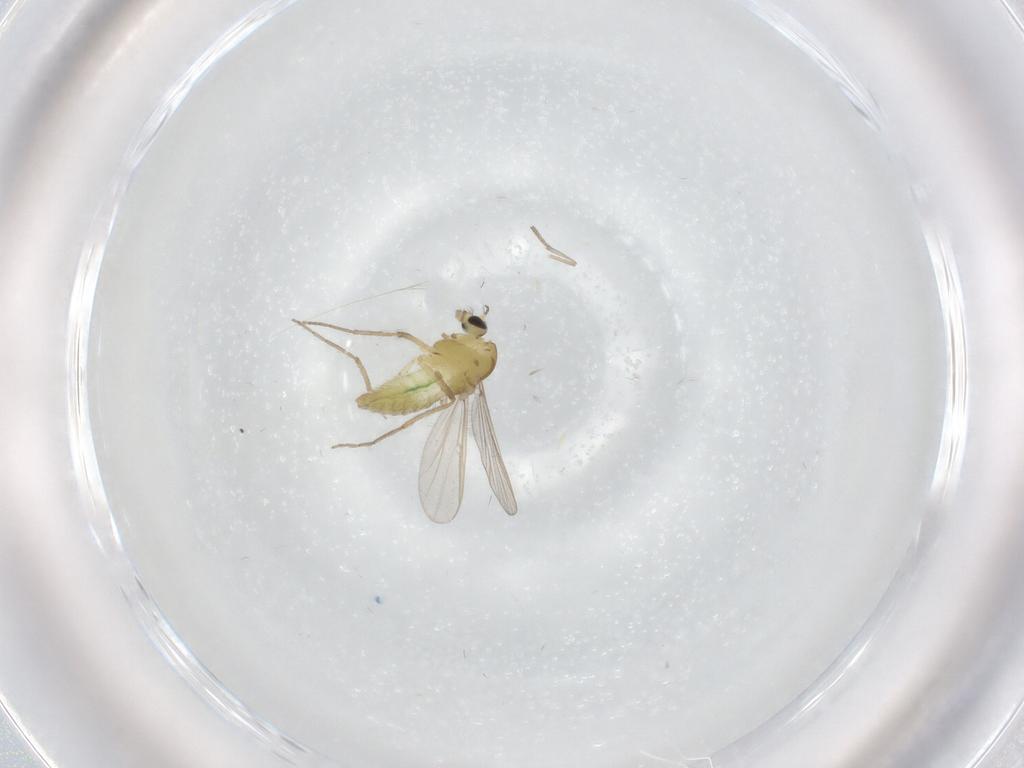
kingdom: Animalia
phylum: Arthropoda
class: Insecta
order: Diptera
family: Chironomidae
